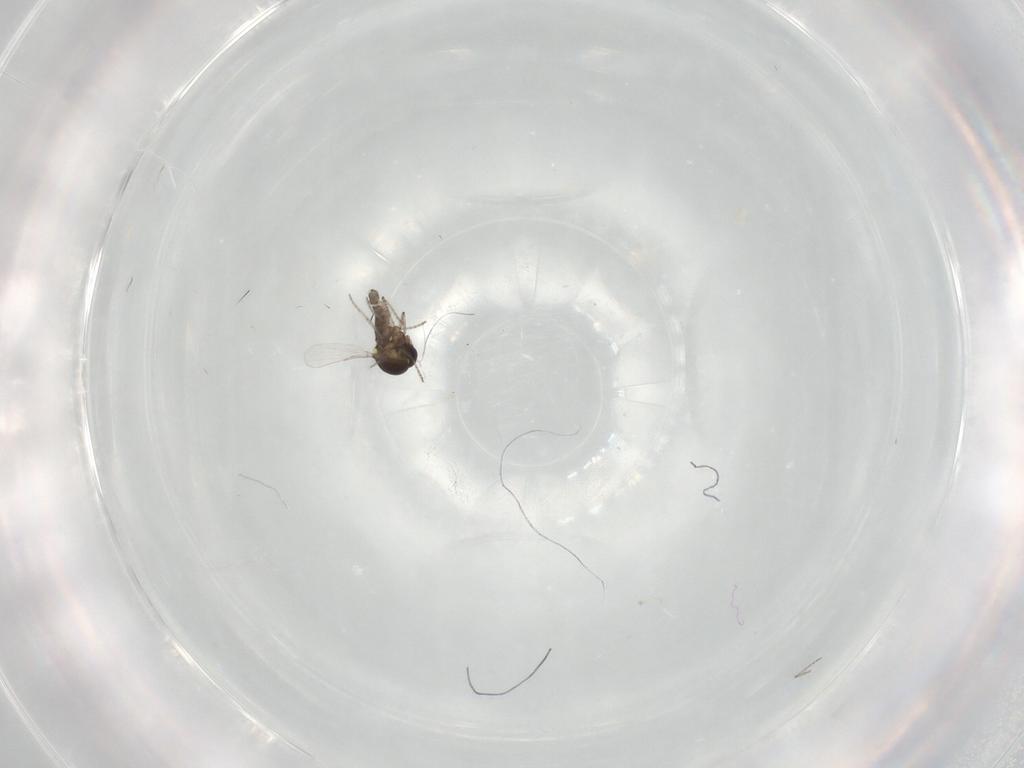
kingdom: Animalia
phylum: Arthropoda
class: Insecta
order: Diptera
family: Ceratopogonidae
